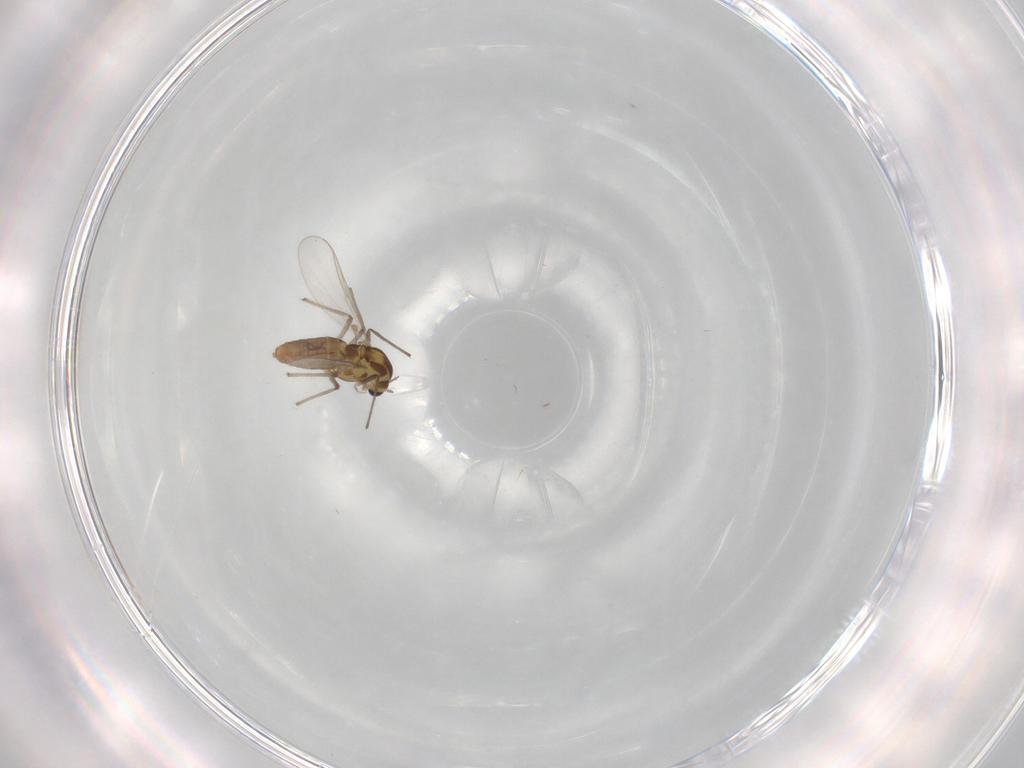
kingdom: Animalia
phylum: Arthropoda
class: Insecta
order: Diptera
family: Chironomidae
